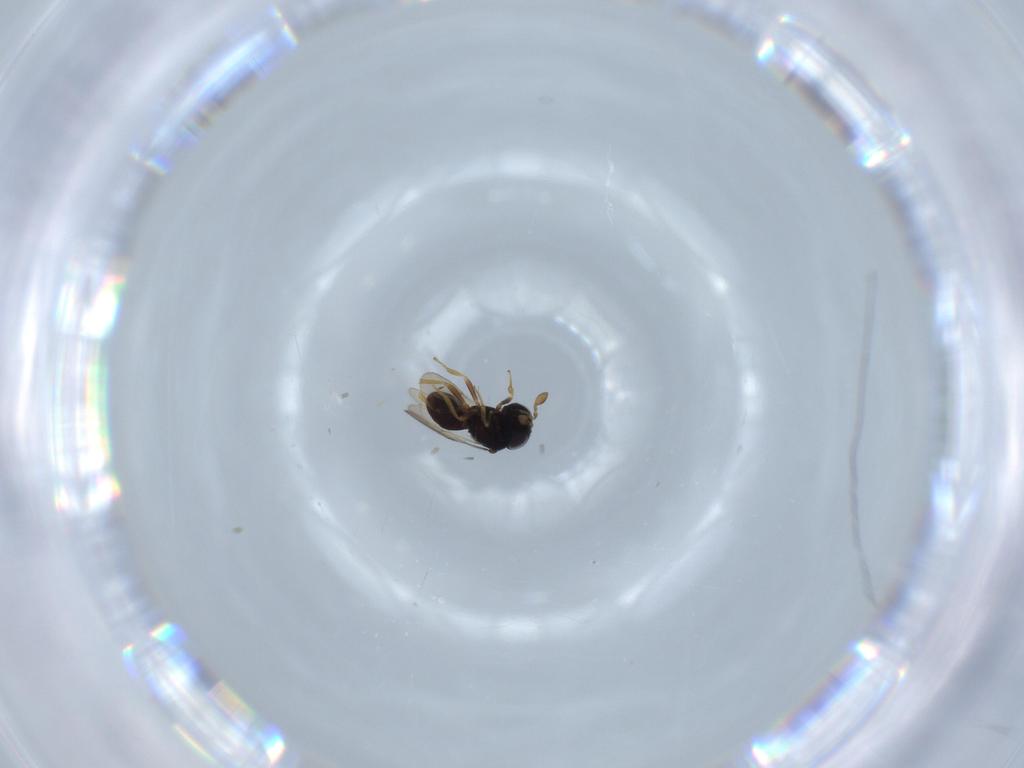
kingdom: Animalia
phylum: Arthropoda
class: Insecta
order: Hymenoptera
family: Scelionidae
